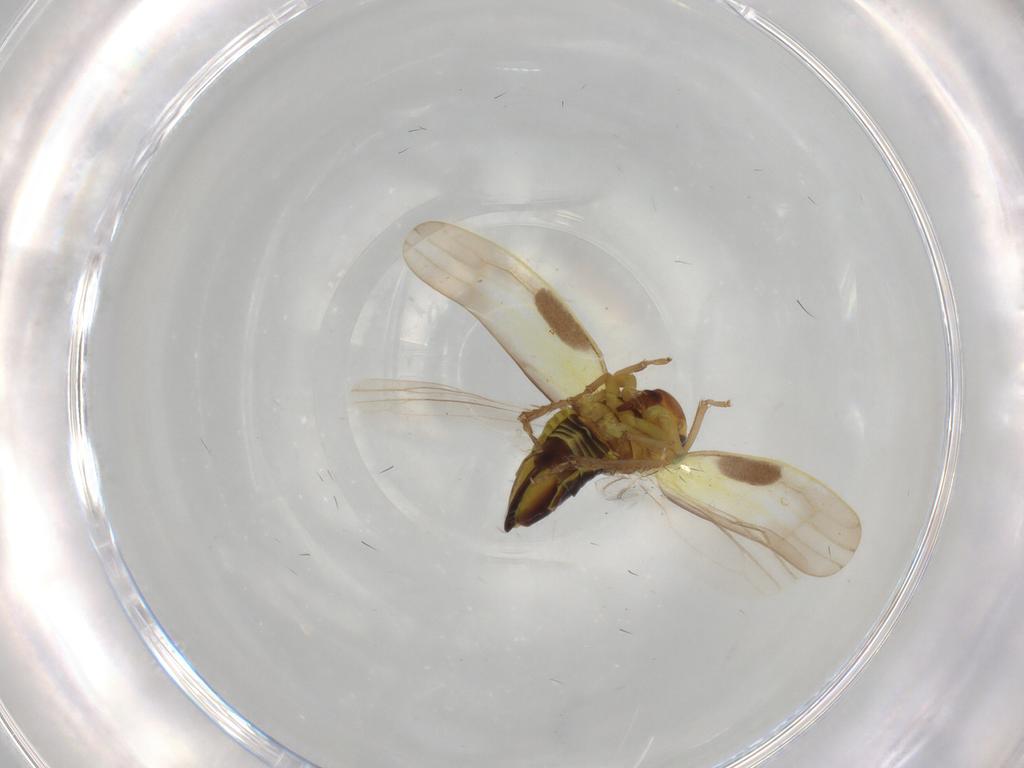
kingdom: Animalia
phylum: Arthropoda
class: Insecta
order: Hemiptera
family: Cicadellidae
